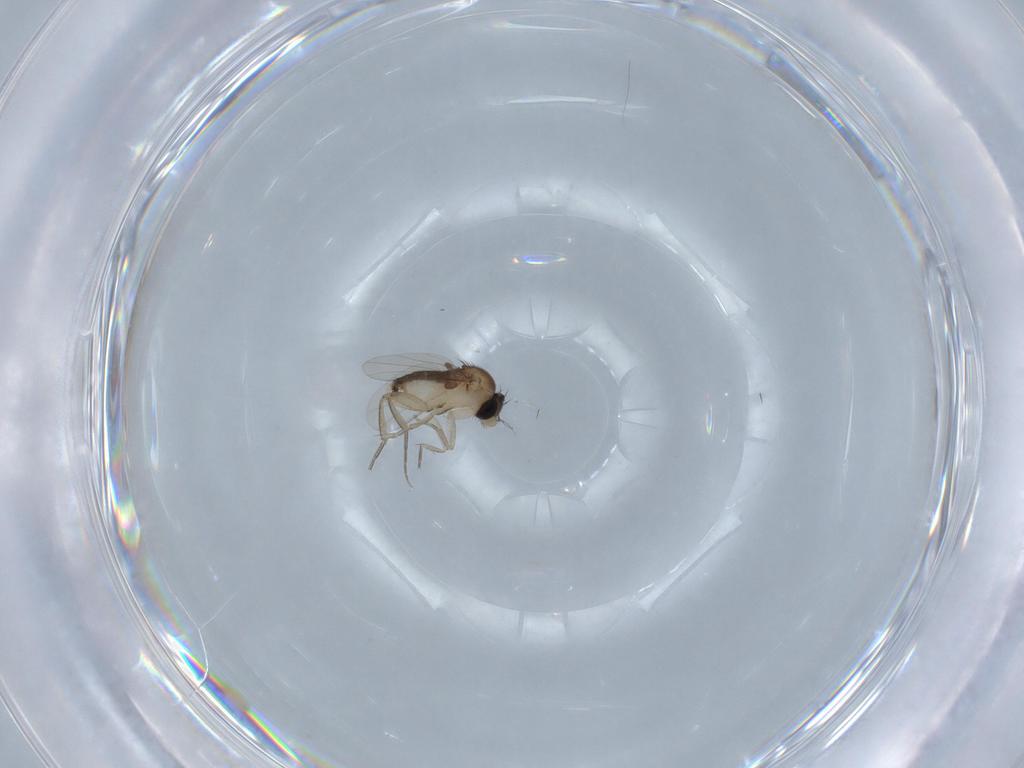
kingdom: Animalia
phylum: Arthropoda
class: Insecta
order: Diptera
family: Phoridae
